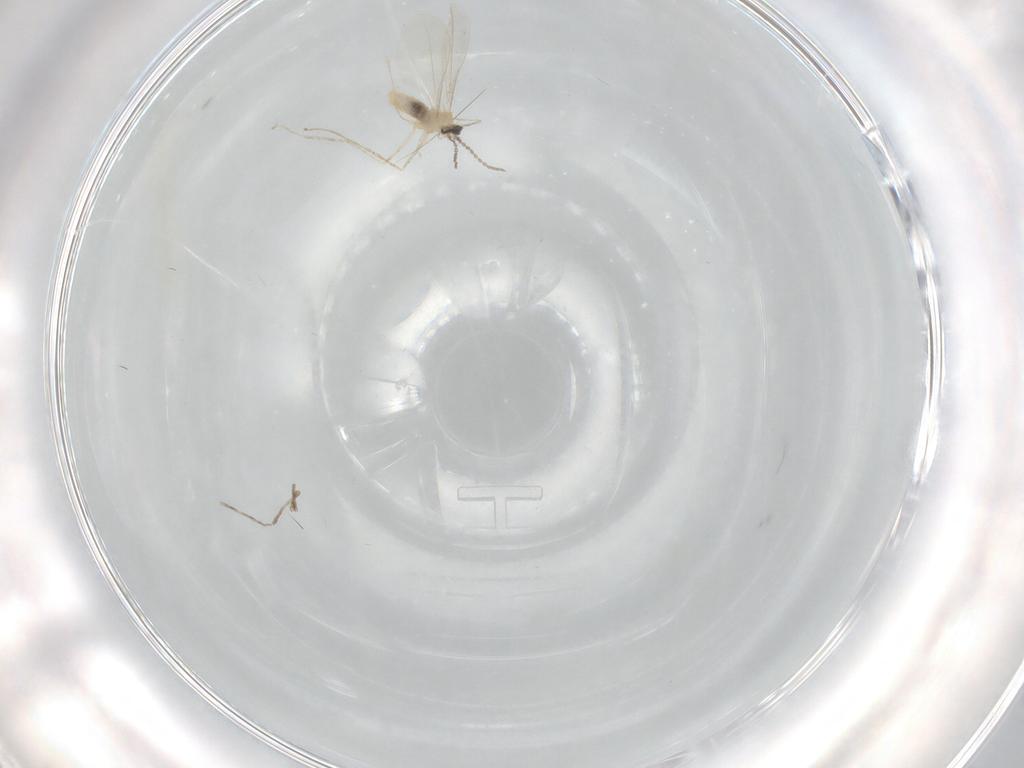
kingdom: Animalia
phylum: Arthropoda
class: Insecta
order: Diptera
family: Cecidomyiidae
